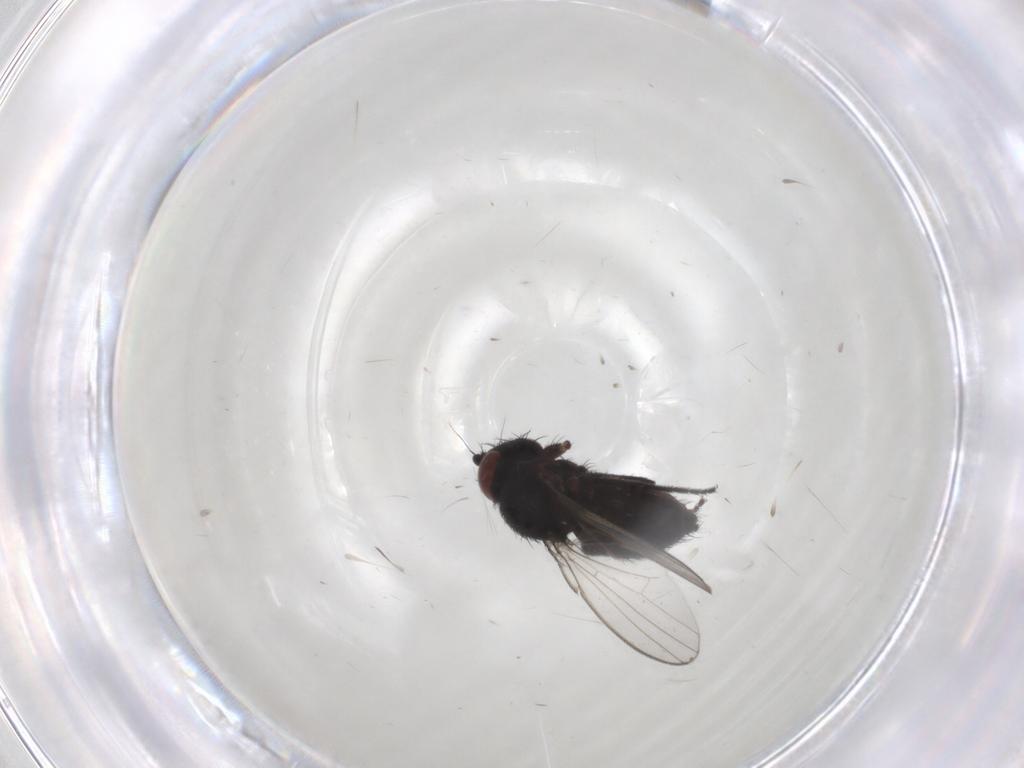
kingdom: Animalia
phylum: Arthropoda
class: Insecta
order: Diptera
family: Milichiidae
